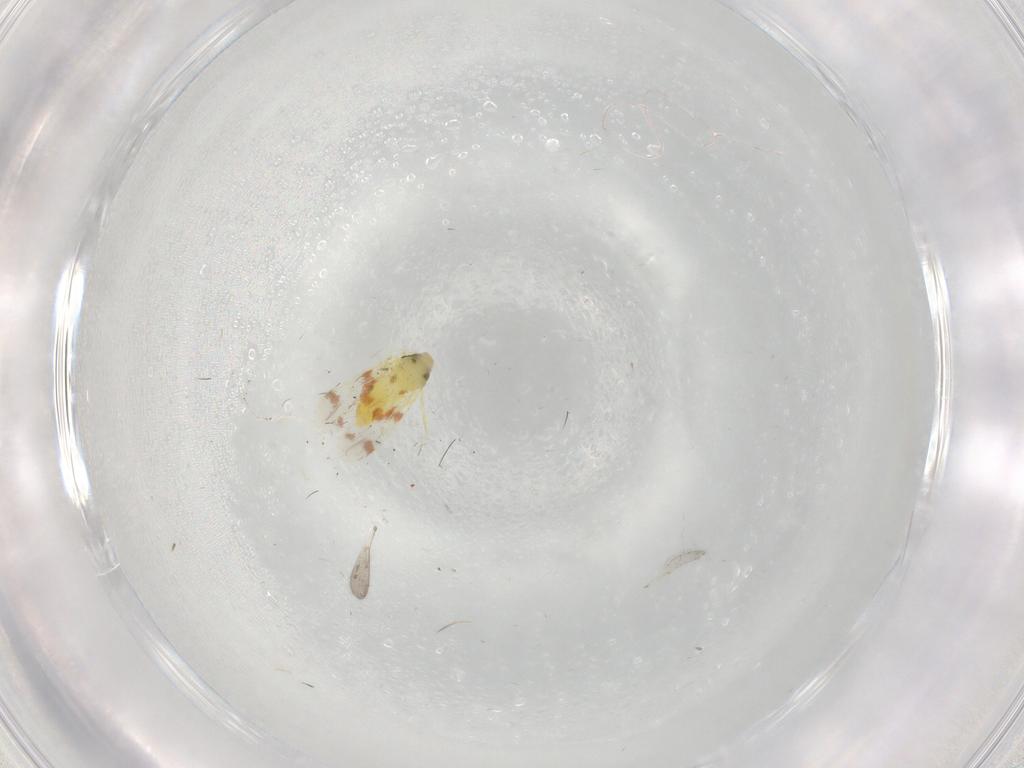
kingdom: Animalia
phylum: Arthropoda
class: Insecta
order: Hemiptera
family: Aleyrodidae
